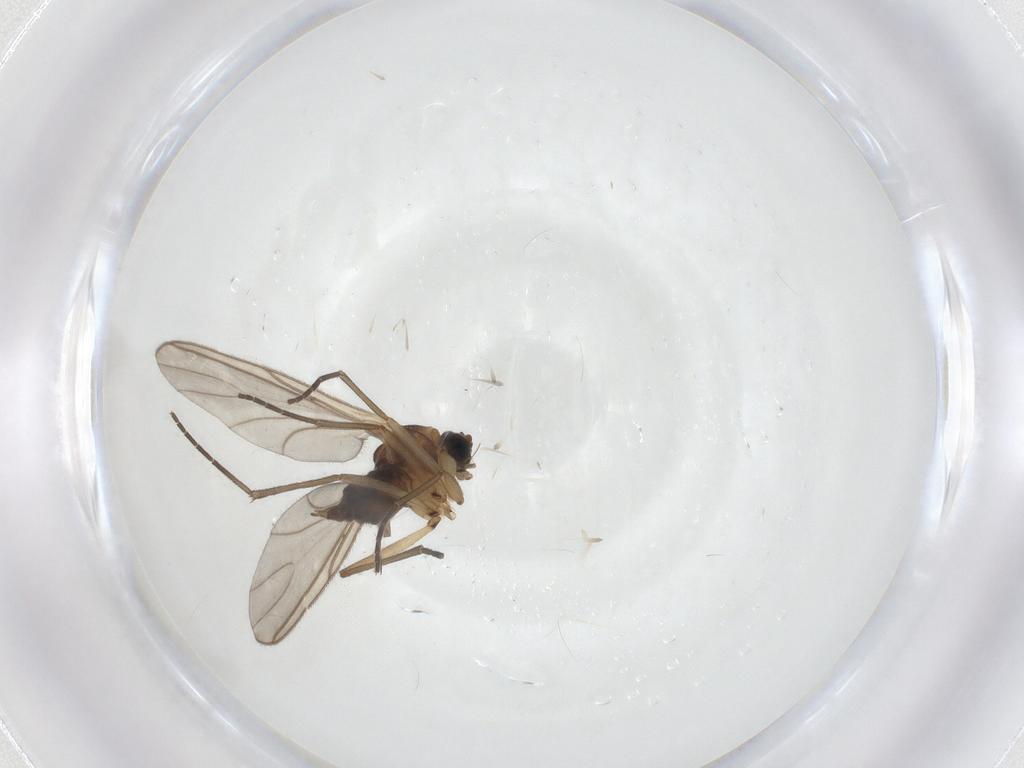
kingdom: Animalia
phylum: Arthropoda
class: Insecta
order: Diptera
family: Sciaridae
